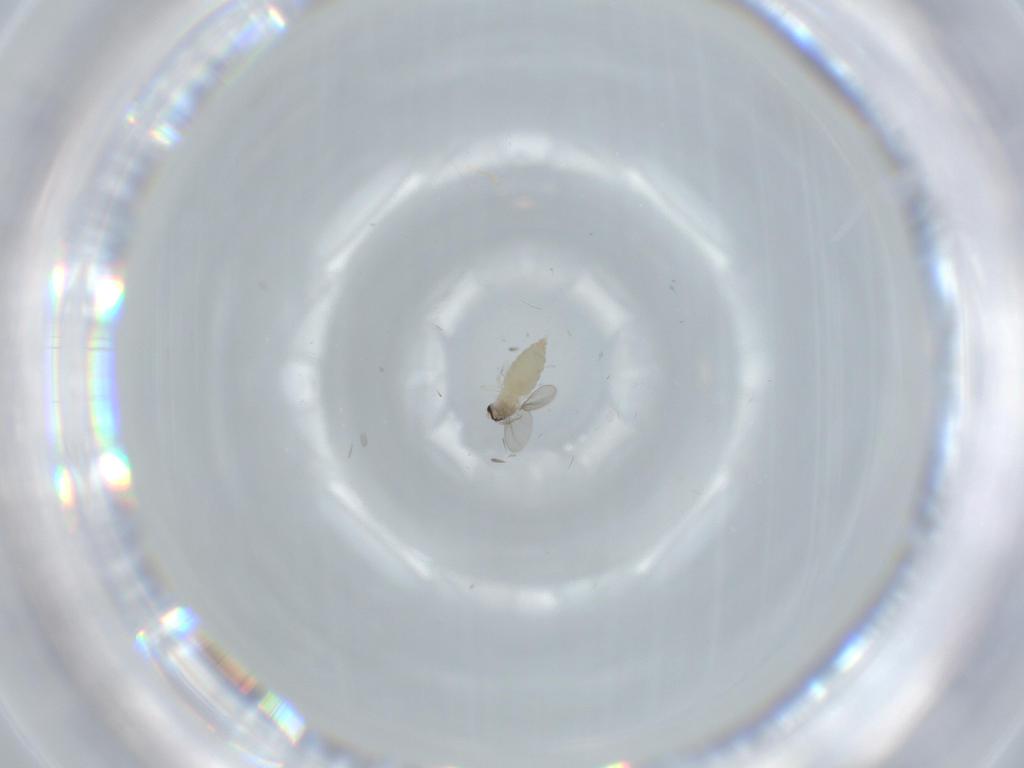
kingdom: Animalia
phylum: Arthropoda
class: Insecta
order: Diptera
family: Cecidomyiidae
